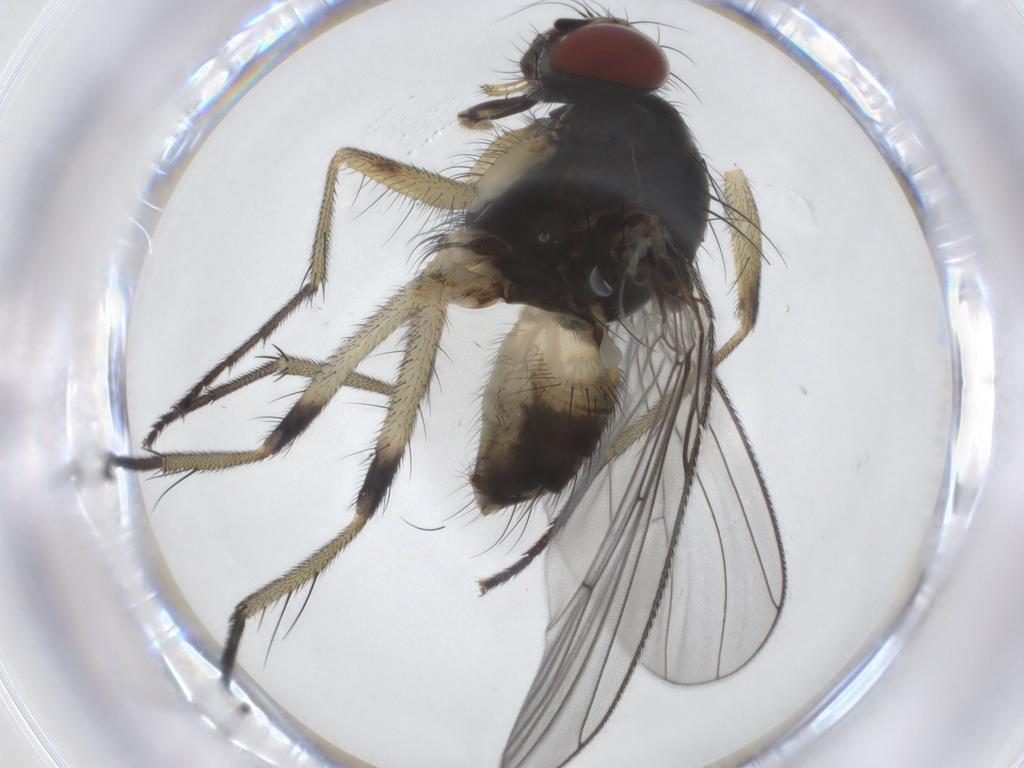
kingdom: Animalia
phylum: Arthropoda
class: Insecta
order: Diptera
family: Muscidae
